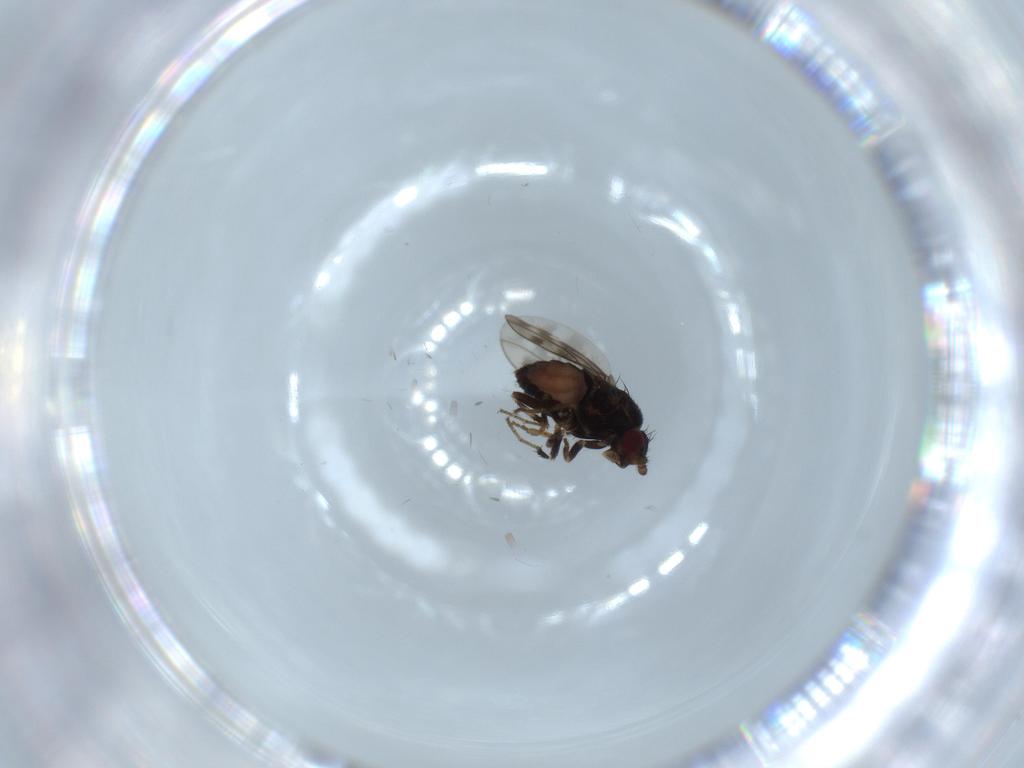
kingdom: Animalia
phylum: Arthropoda
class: Insecta
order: Diptera
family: Sphaeroceridae
